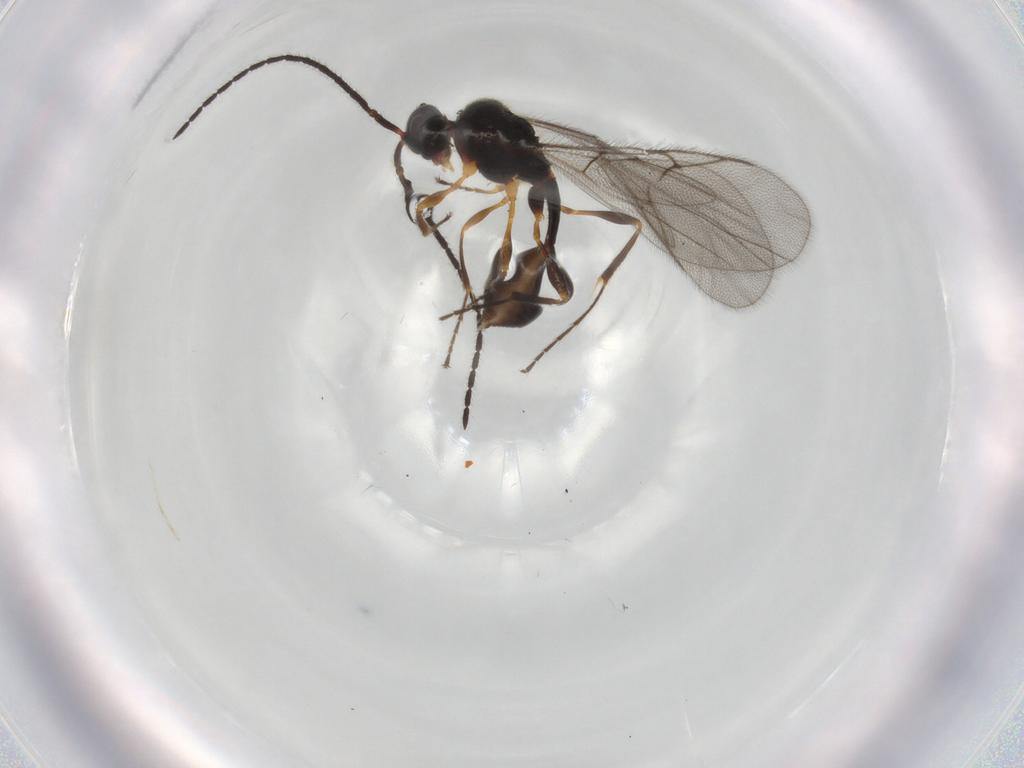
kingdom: Animalia
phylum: Arthropoda
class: Insecta
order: Hymenoptera
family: Diapriidae
